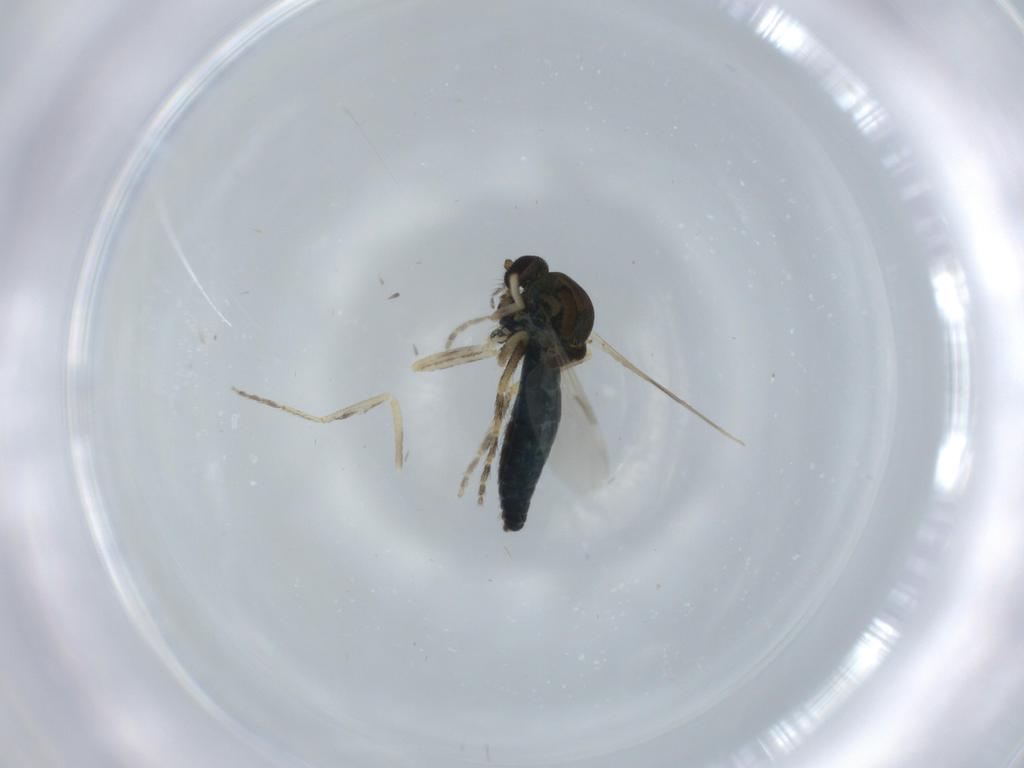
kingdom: Animalia
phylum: Arthropoda
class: Insecta
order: Diptera
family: Ceratopogonidae
